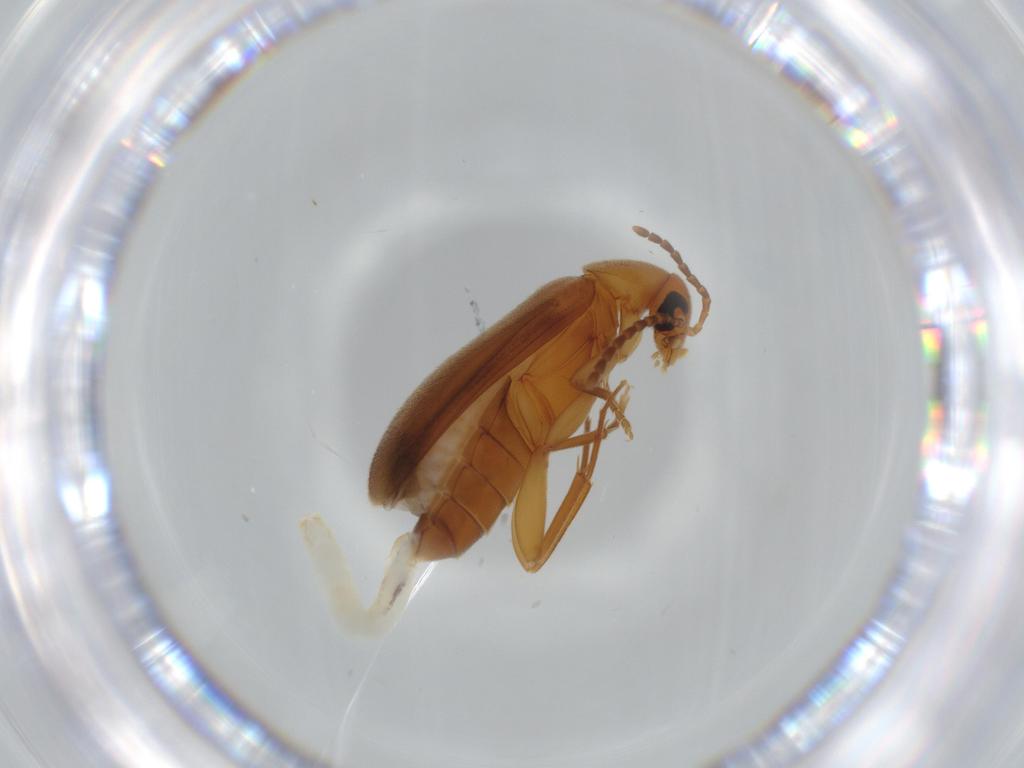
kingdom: Animalia
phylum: Arthropoda
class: Insecta
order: Coleoptera
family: Scraptiidae
